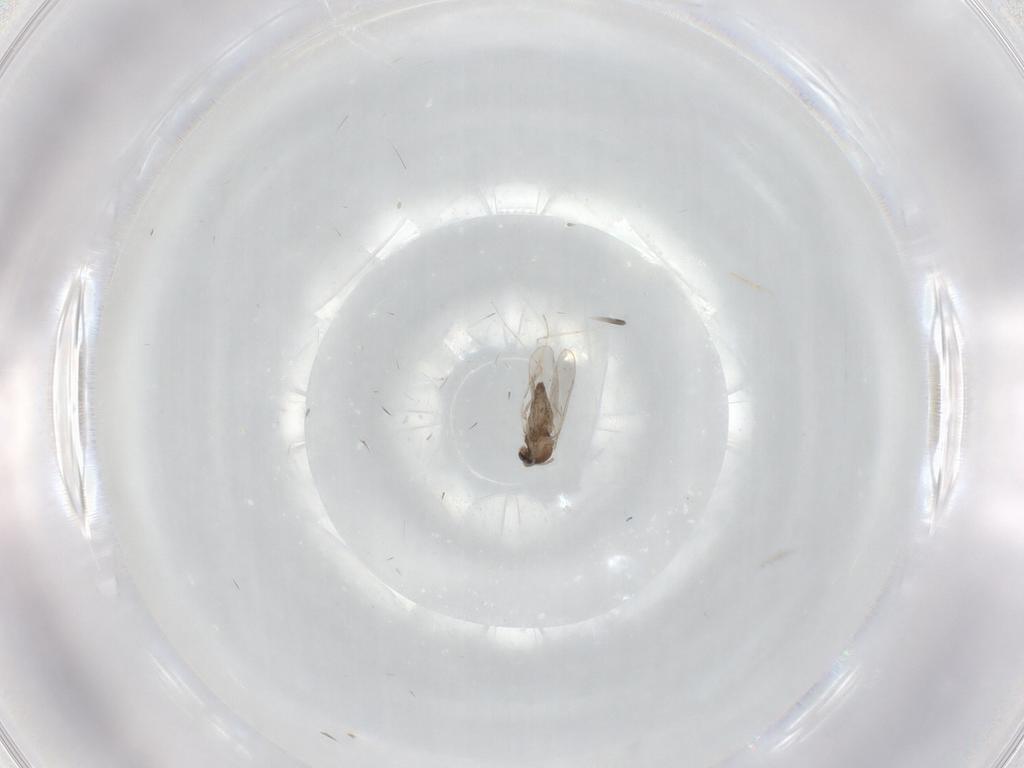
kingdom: Animalia
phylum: Arthropoda
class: Insecta
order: Diptera
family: Cecidomyiidae
